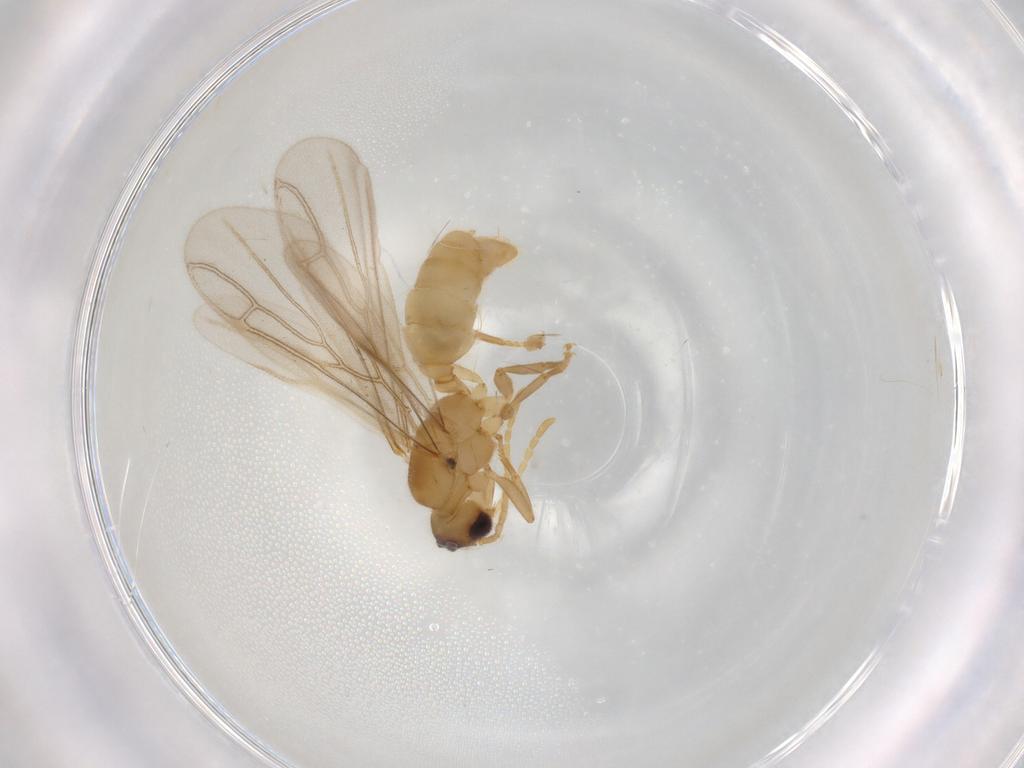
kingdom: Animalia
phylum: Arthropoda
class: Insecta
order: Hymenoptera
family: Formicidae
